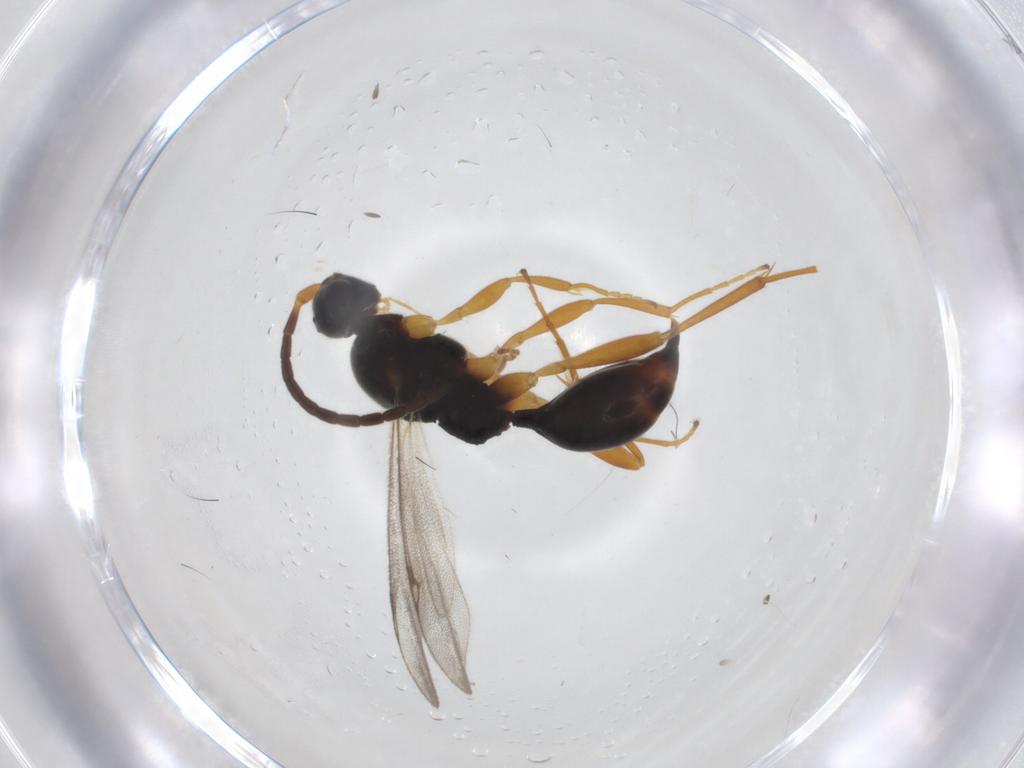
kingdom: Animalia
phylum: Arthropoda
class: Insecta
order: Hymenoptera
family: Proctotrupidae
